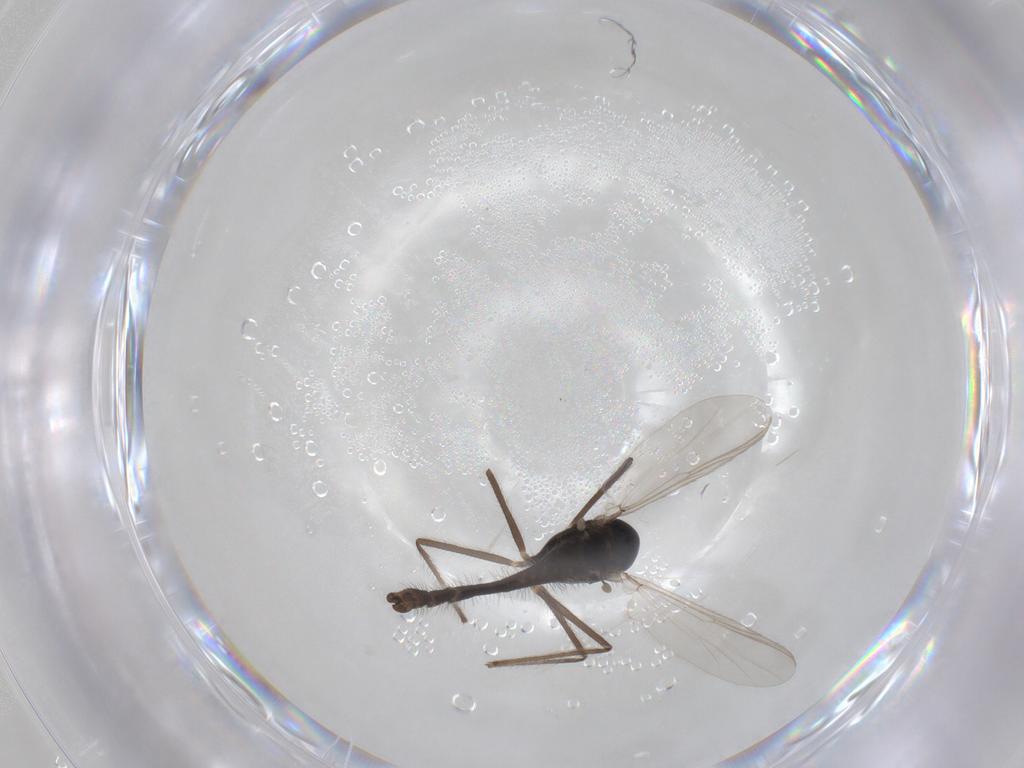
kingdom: Animalia
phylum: Arthropoda
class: Insecta
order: Diptera
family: Chironomidae
